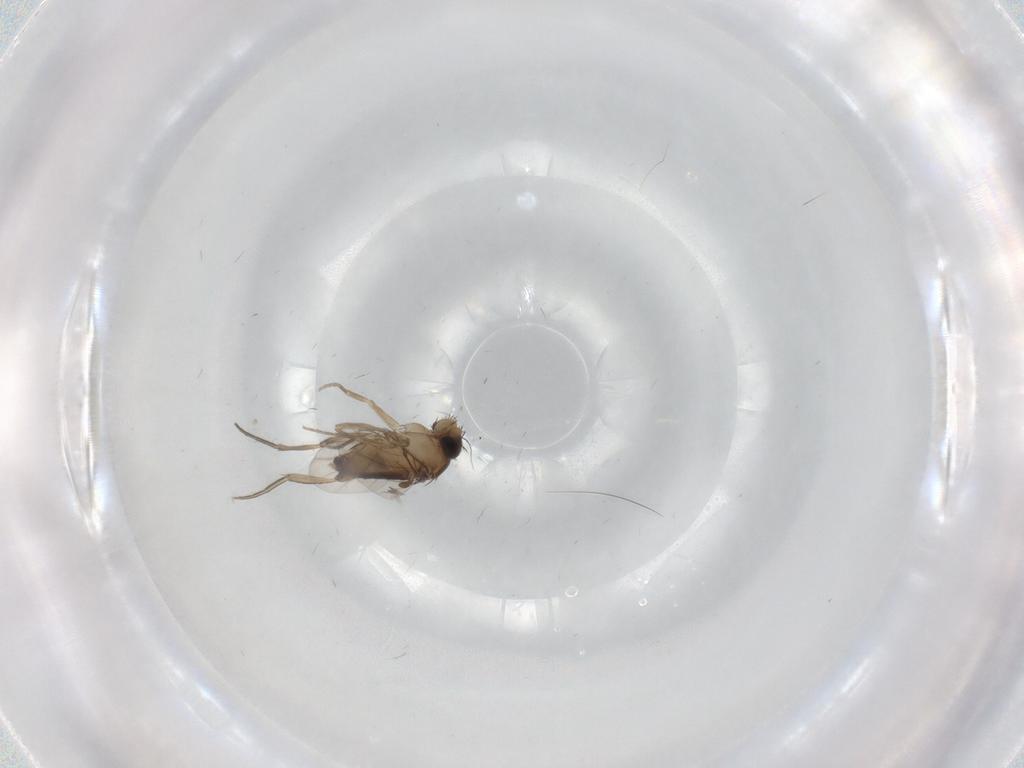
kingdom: Animalia
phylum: Arthropoda
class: Insecta
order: Diptera
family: Phoridae
